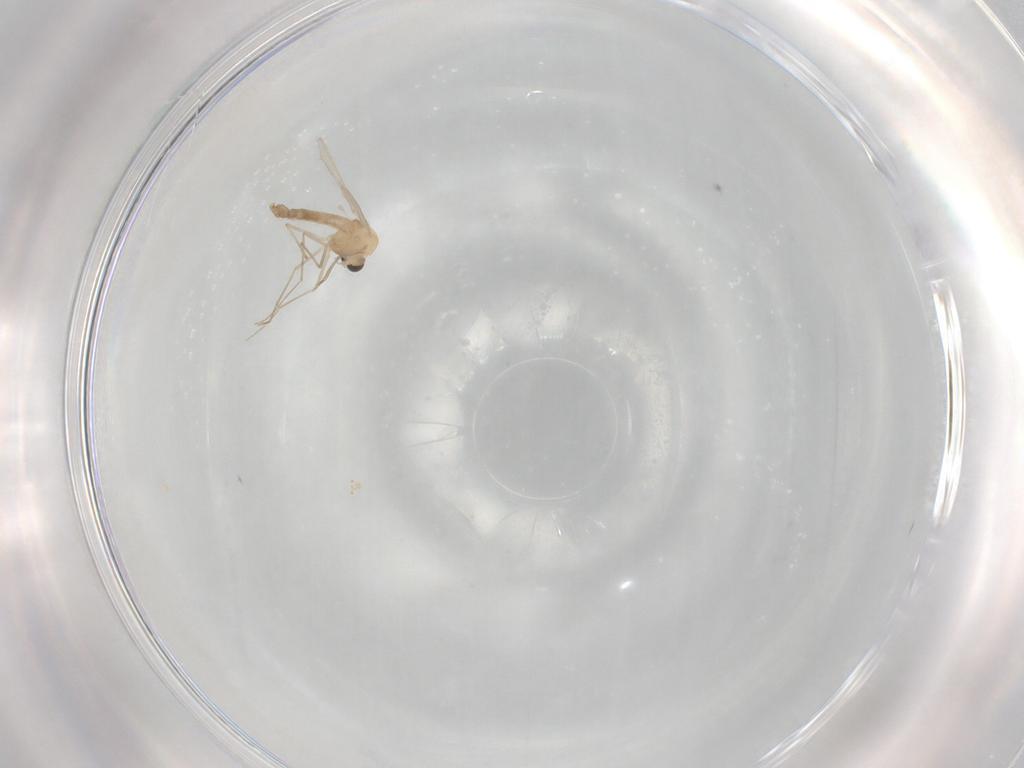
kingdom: Animalia
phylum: Arthropoda
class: Insecta
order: Diptera
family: Chironomidae
